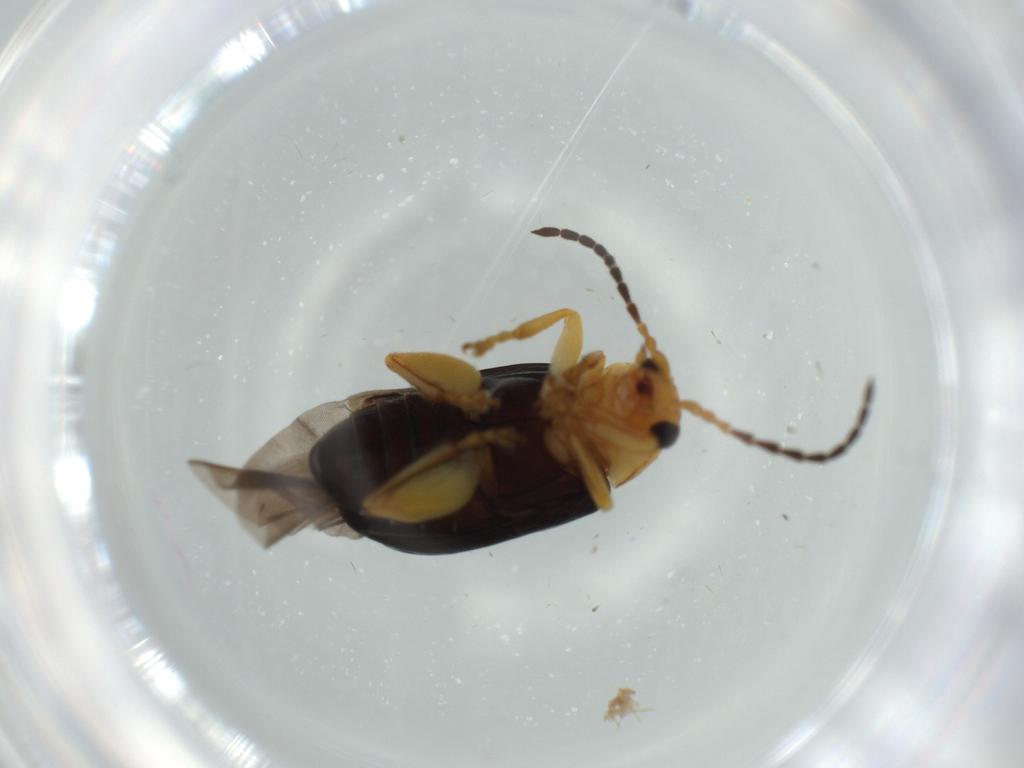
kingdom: Animalia
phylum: Arthropoda
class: Insecta
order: Coleoptera
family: Chrysomelidae
